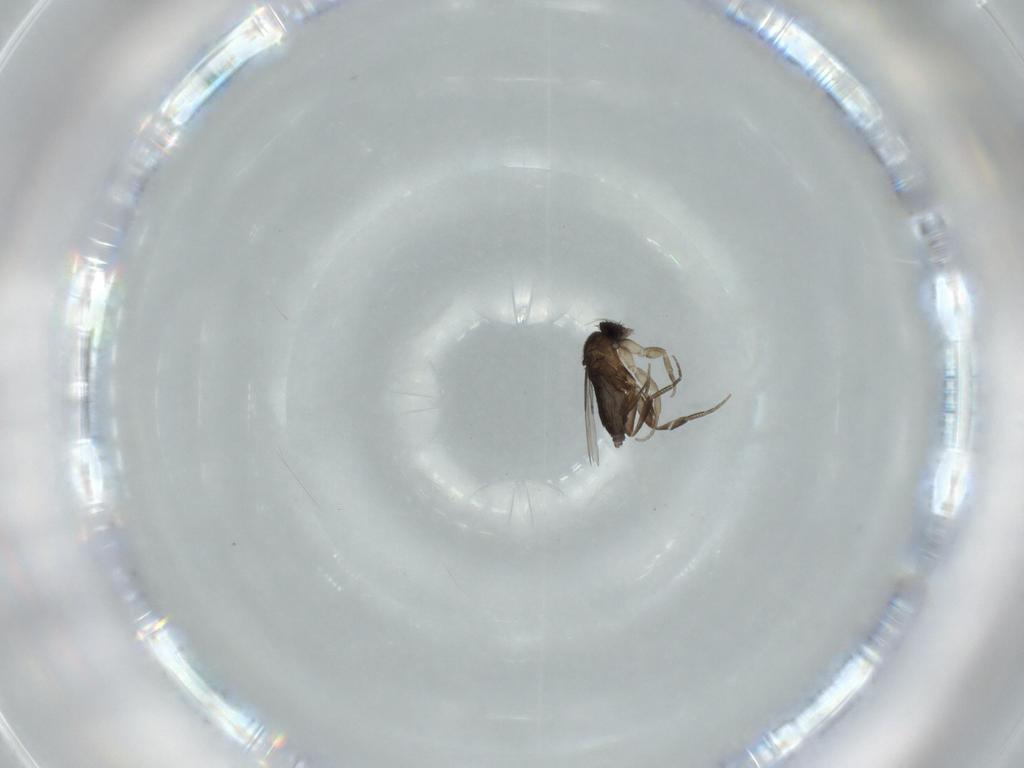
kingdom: Animalia
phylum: Arthropoda
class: Insecta
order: Diptera
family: Phoridae
